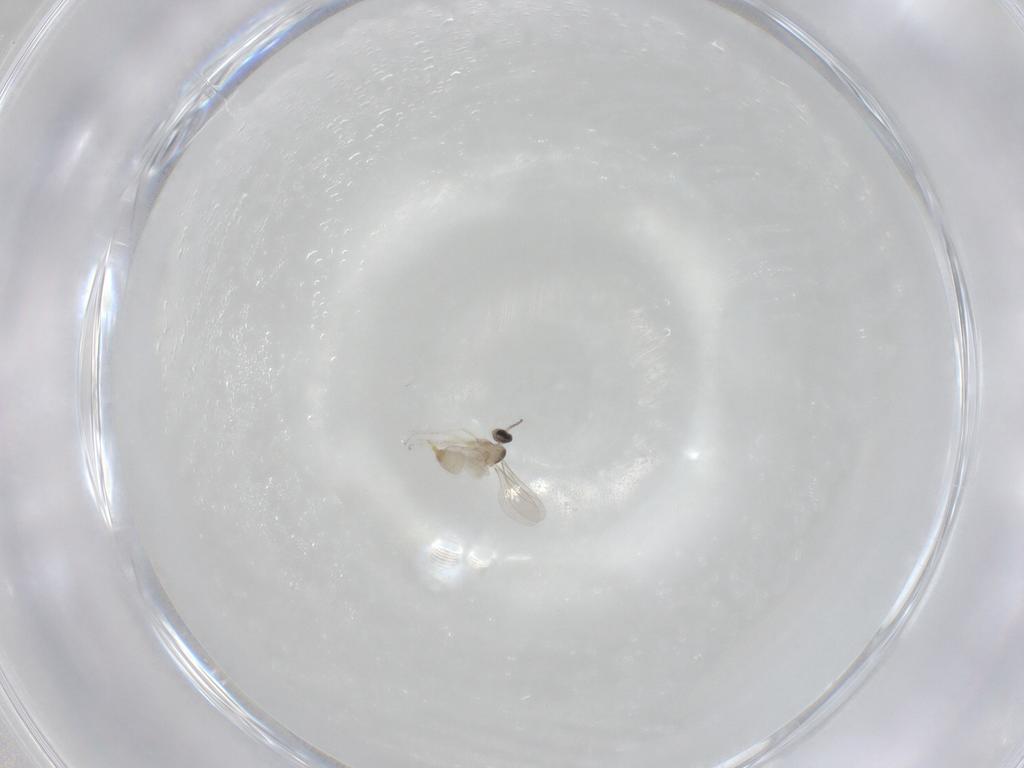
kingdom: Animalia
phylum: Arthropoda
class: Insecta
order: Diptera
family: Cecidomyiidae
